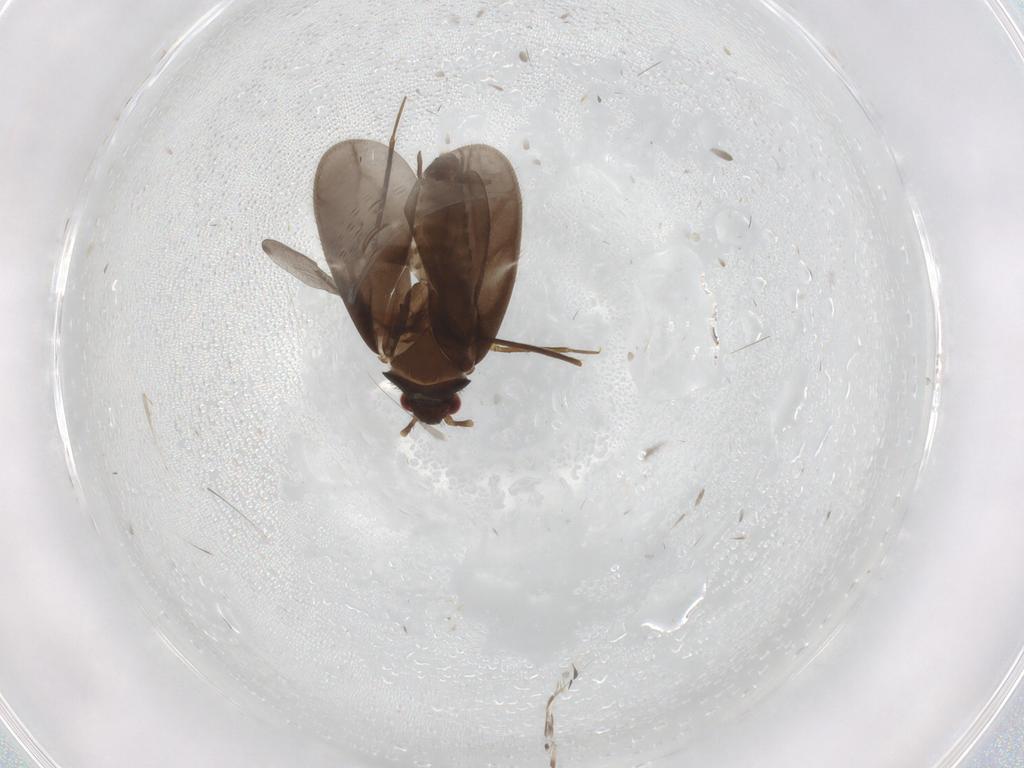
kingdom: Animalia
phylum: Arthropoda
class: Insecta
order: Hemiptera
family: Ceratocombidae
